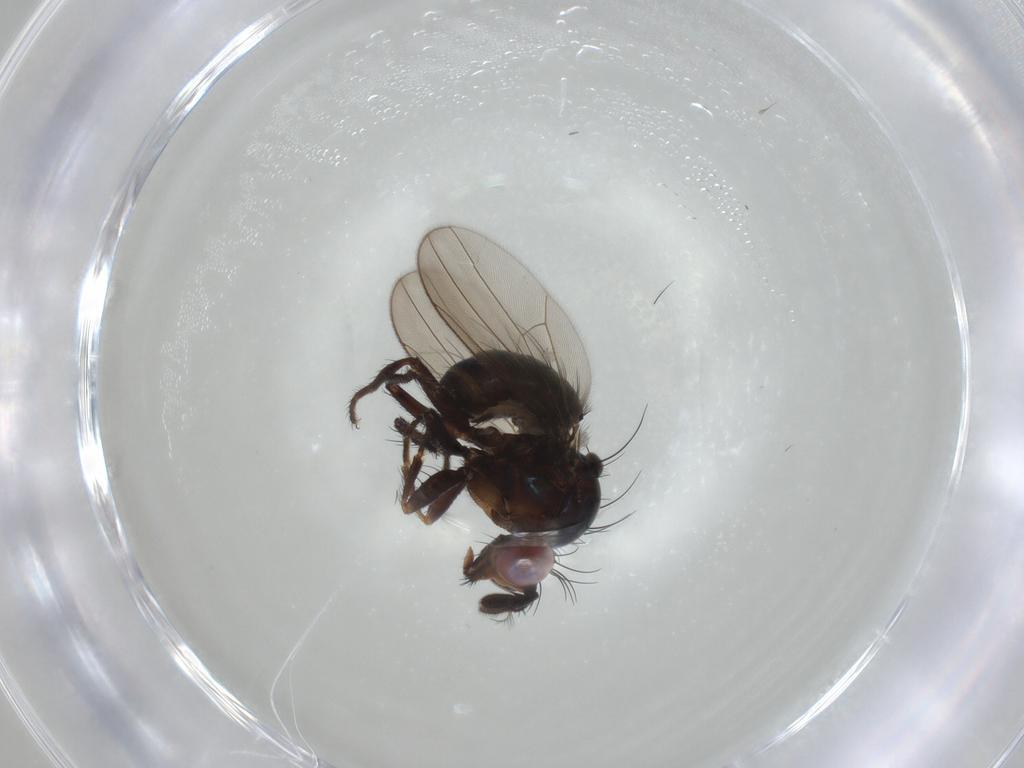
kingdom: Animalia
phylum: Arthropoda
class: Insecta
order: Diptera
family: Ephydridae
